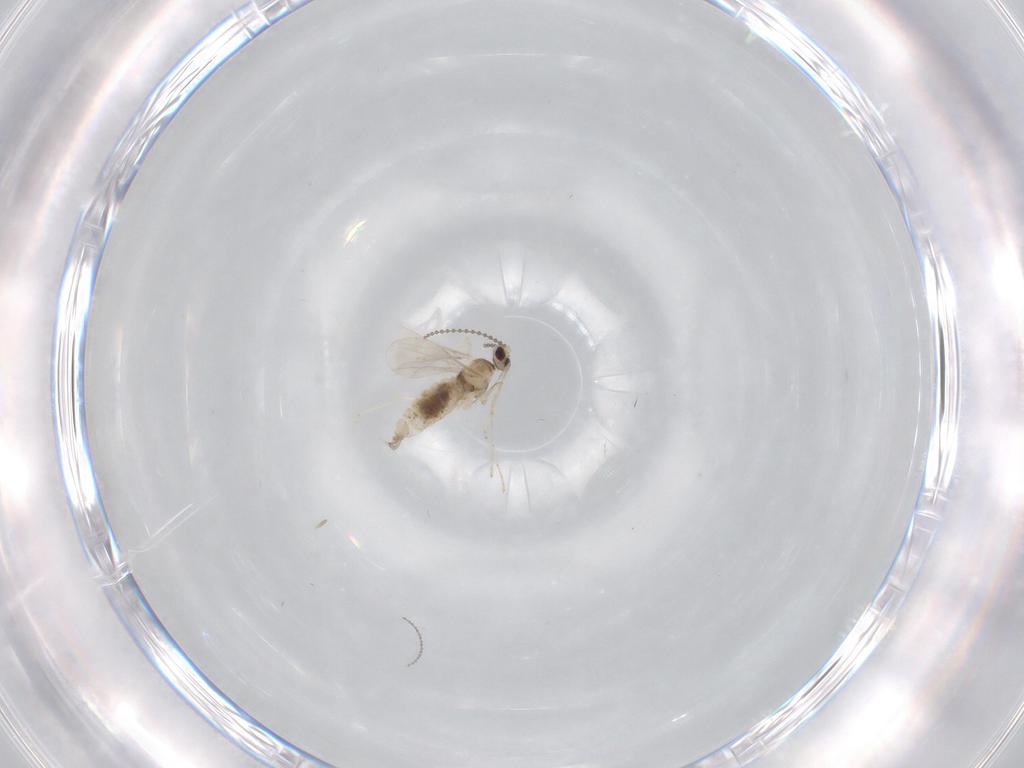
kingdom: Animalia
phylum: Arthropoda
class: Insecta
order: Diptera
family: Cecidomyiidae
